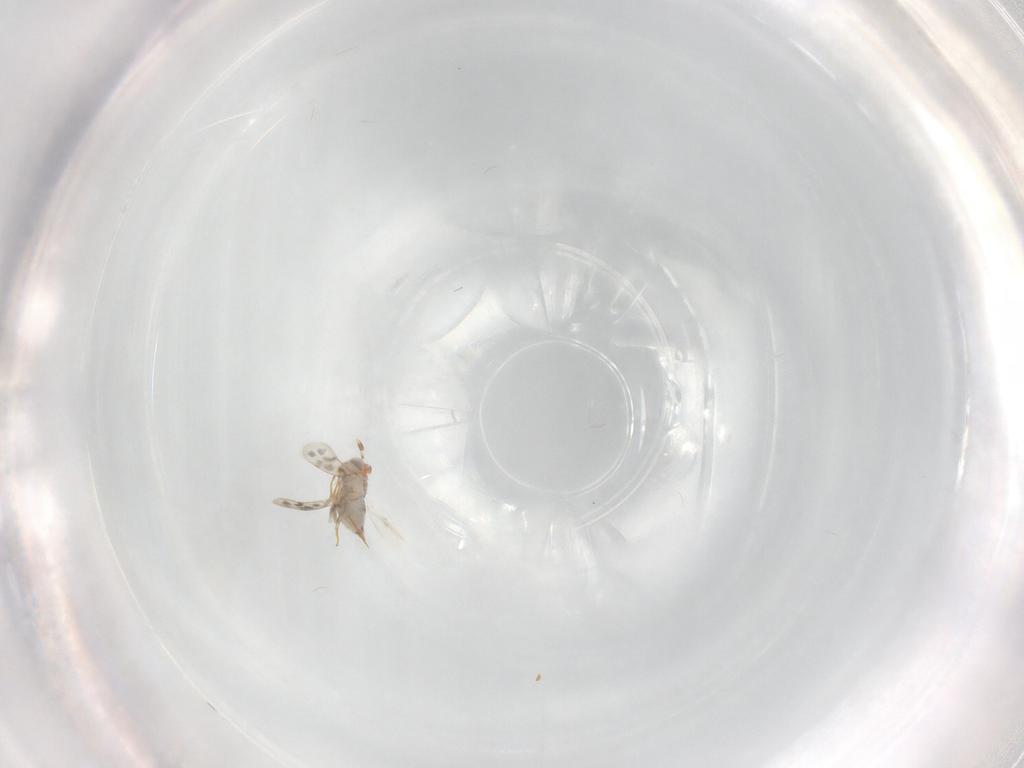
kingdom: Animalia
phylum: Arthropoda
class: Insecta
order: Hymenoptera
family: Aphelinidae
